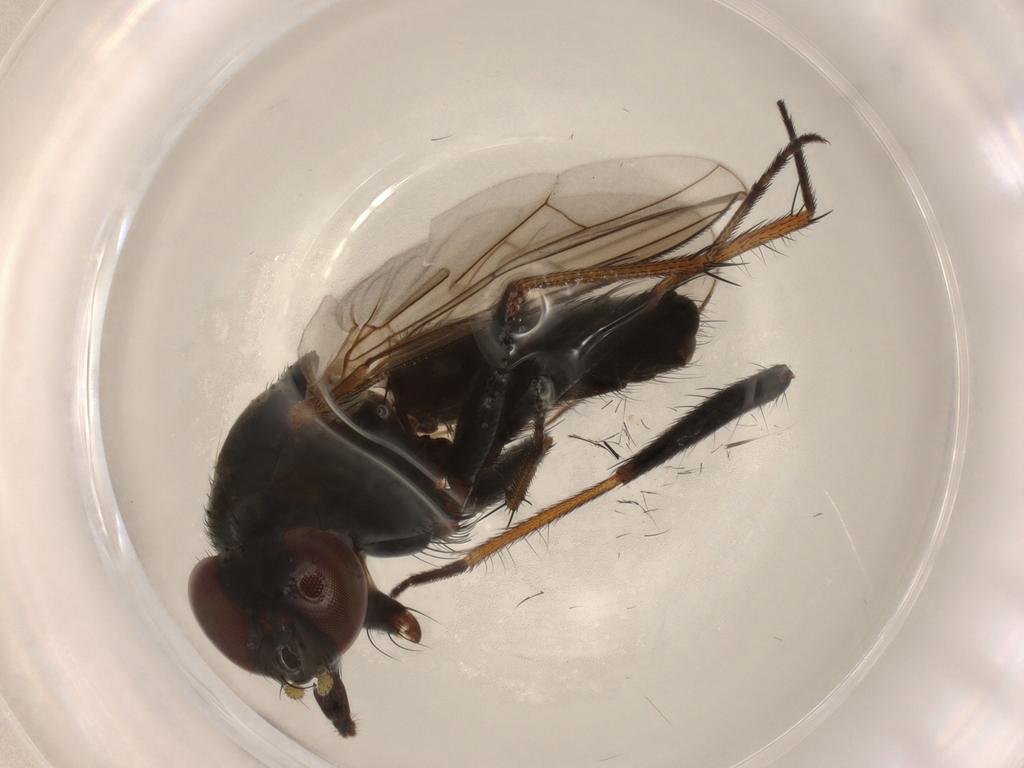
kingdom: Animalia
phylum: Arthropoda
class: Insecta
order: Diptera
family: Muscidae
